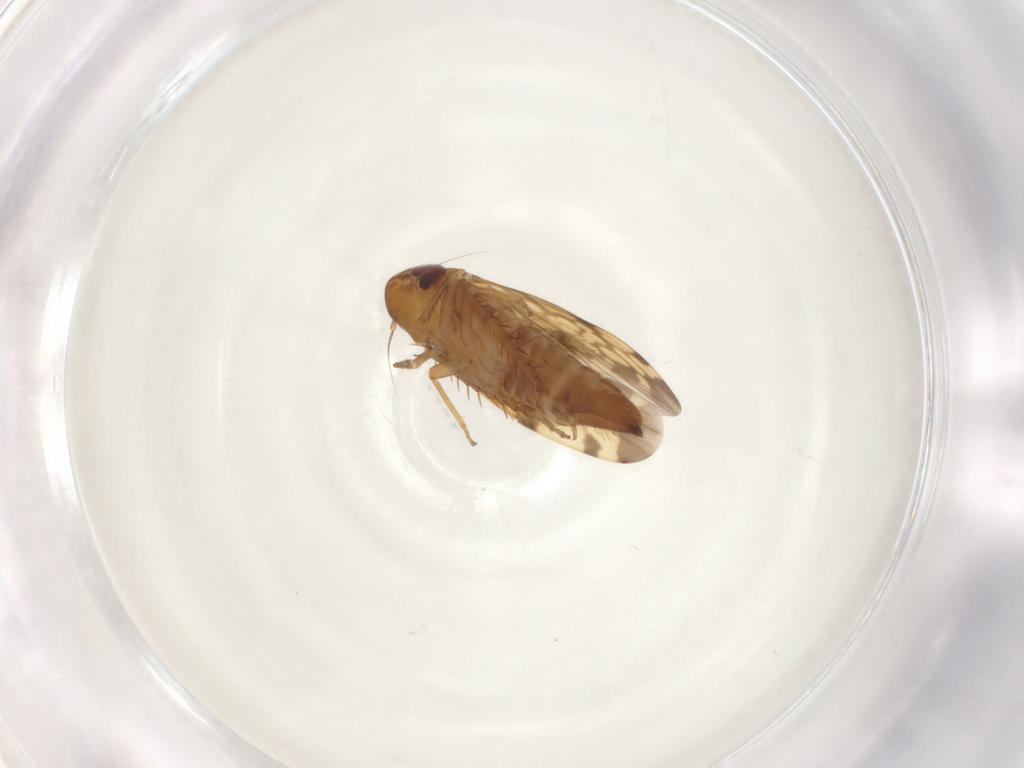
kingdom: Animalia
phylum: Arthropoda
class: Insecta
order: Hemiptera
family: Cicadellidae
